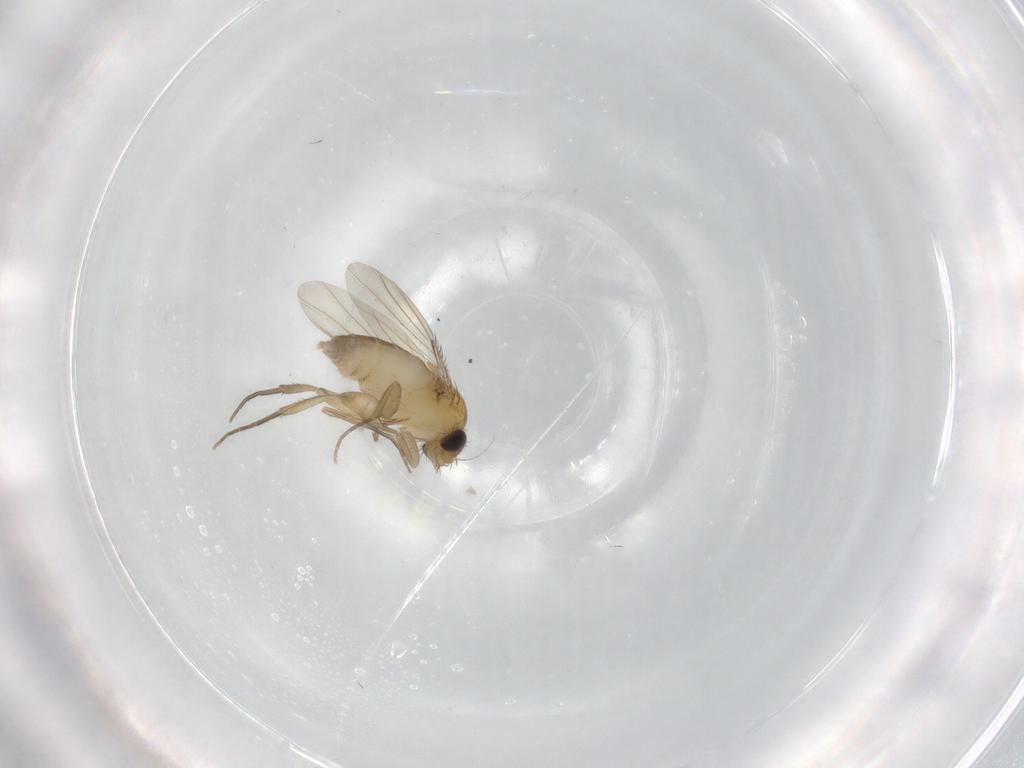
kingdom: Animalia
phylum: Arthropoda
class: Insecta
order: Diptera
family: Phoridae
